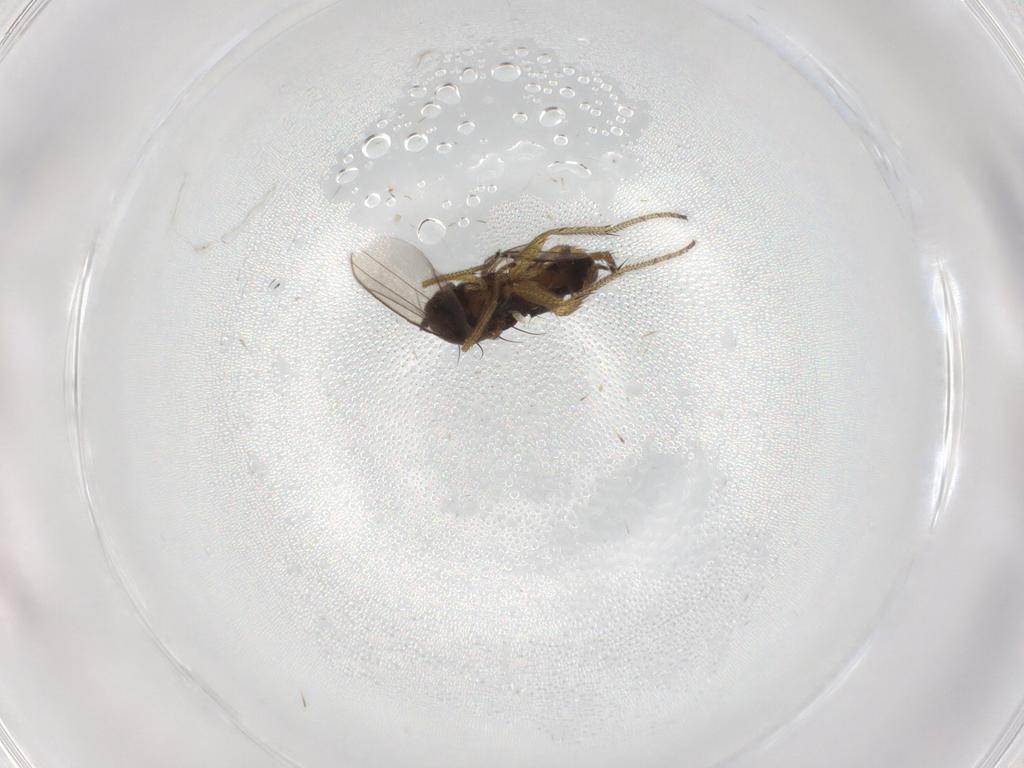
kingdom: Animalia
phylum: Arthropoda
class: Insecta
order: Diptera
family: Ceratopogonidae
